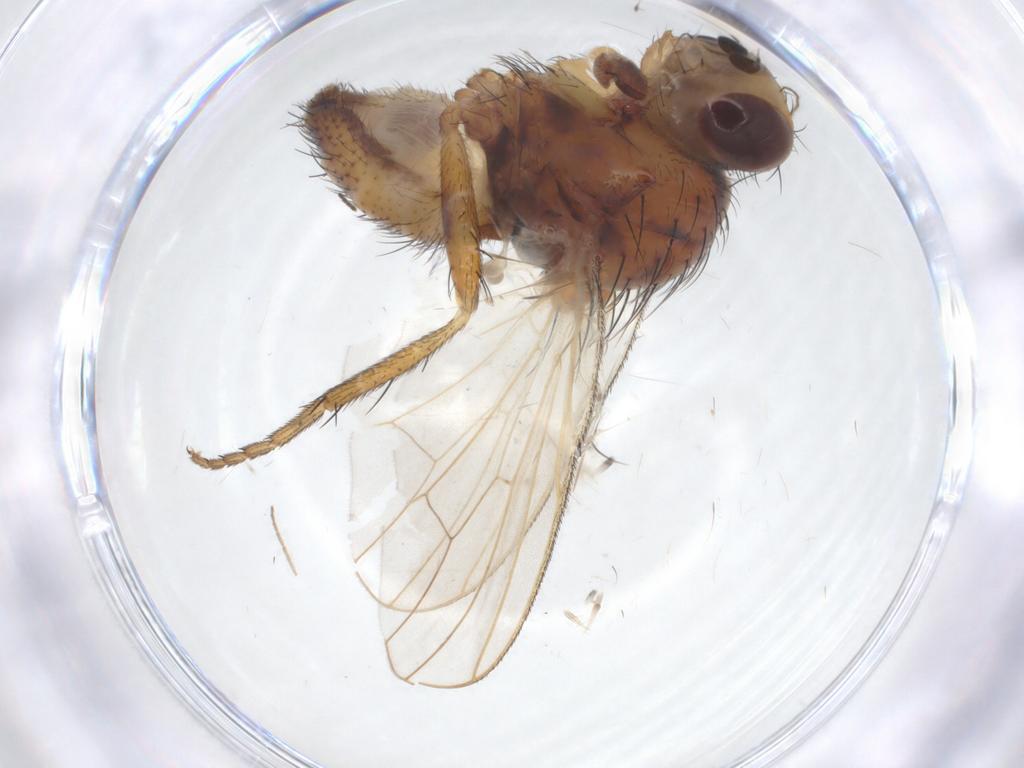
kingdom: Animalia
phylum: Arthropoda
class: Insecta
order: Diptera
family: Chironomidae
